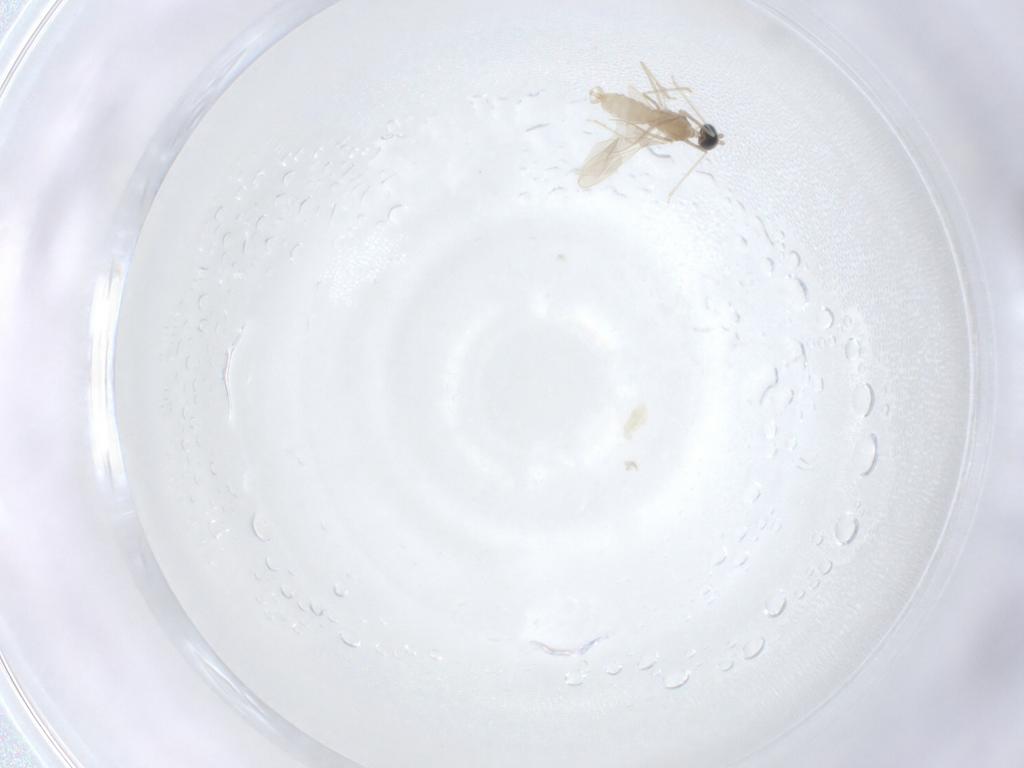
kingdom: Animalia
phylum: Arthropoda
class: Insecta
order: Diptera
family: Cecidomyiidae
